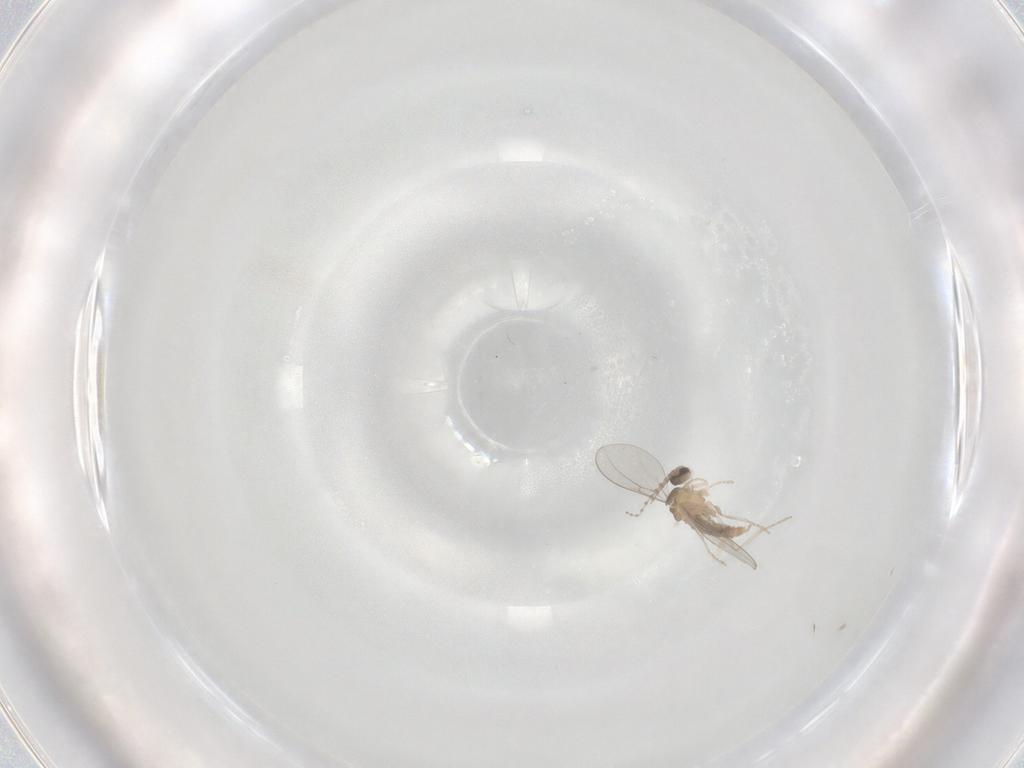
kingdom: Animalia
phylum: Arthropoda
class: Insecta
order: Diptera
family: Cecidomyiidae
